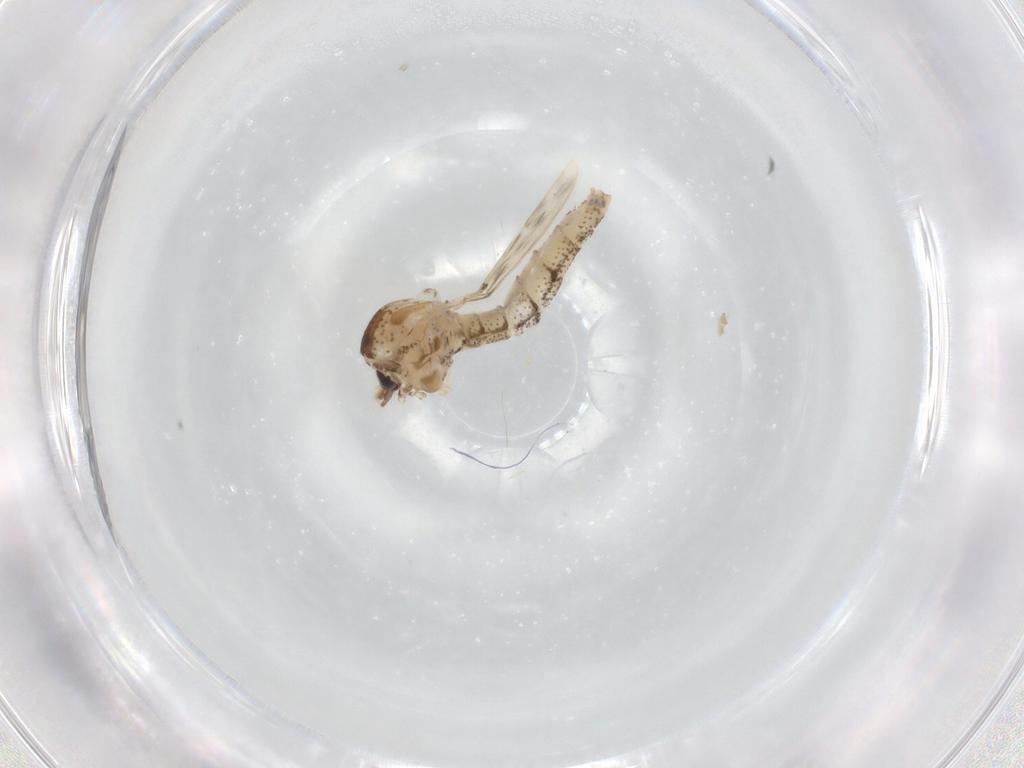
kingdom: Animalia
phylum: Arthropoda
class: Insecta
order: Diptera
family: Chaoboridae
